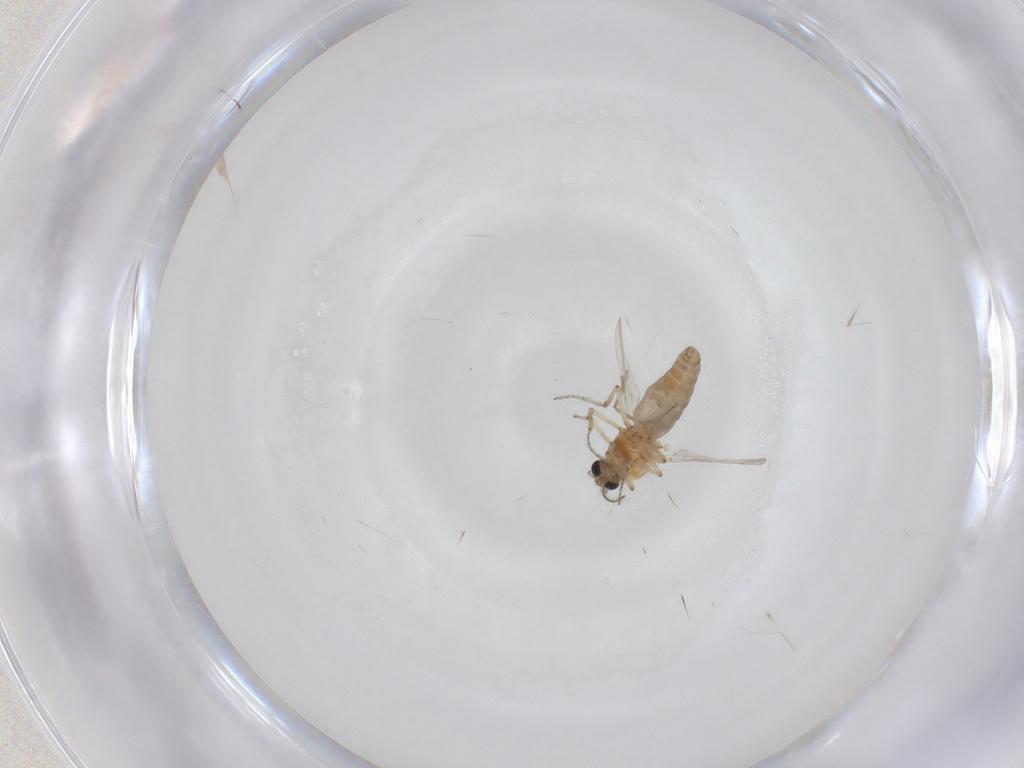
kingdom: Animalia
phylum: Arthropoda
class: Insecta
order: Diptera
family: Ceratopogonidae
